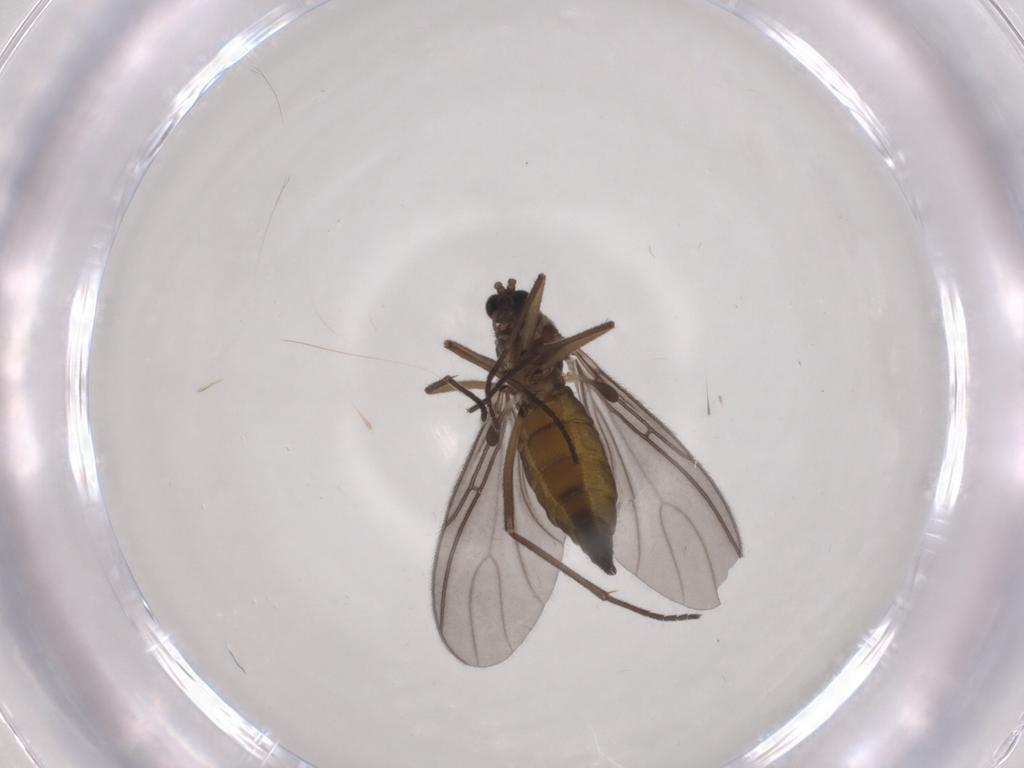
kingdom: Animalia
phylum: Arthropoda
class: Insecta
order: Diptera
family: Sciaridae
